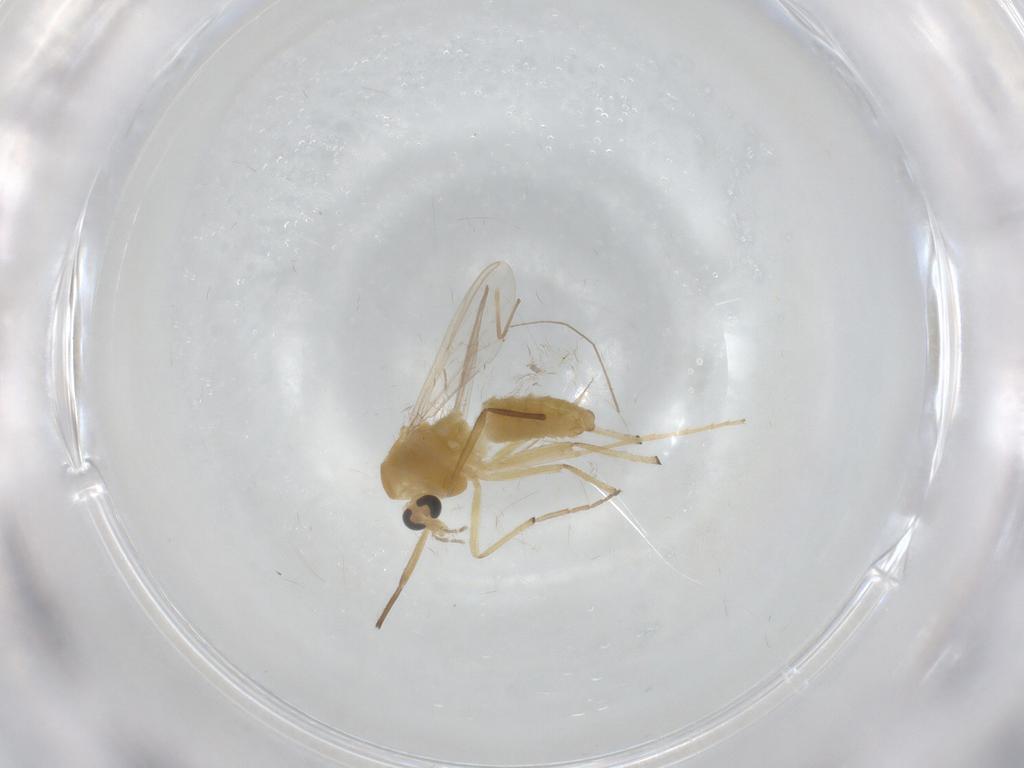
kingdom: Animalia
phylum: Arthropoda
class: Insecta
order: Diptera
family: Chironomidae
